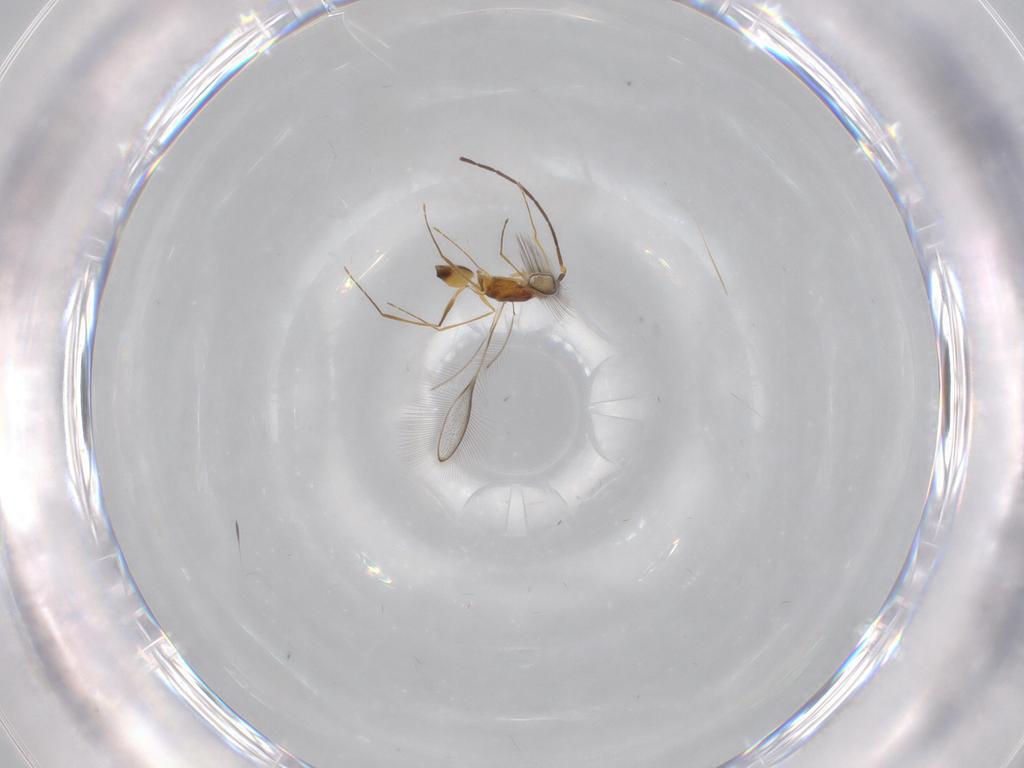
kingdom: Animalia
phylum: Arthropoda
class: Insecta
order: Hymenoptera
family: Mymaridae
